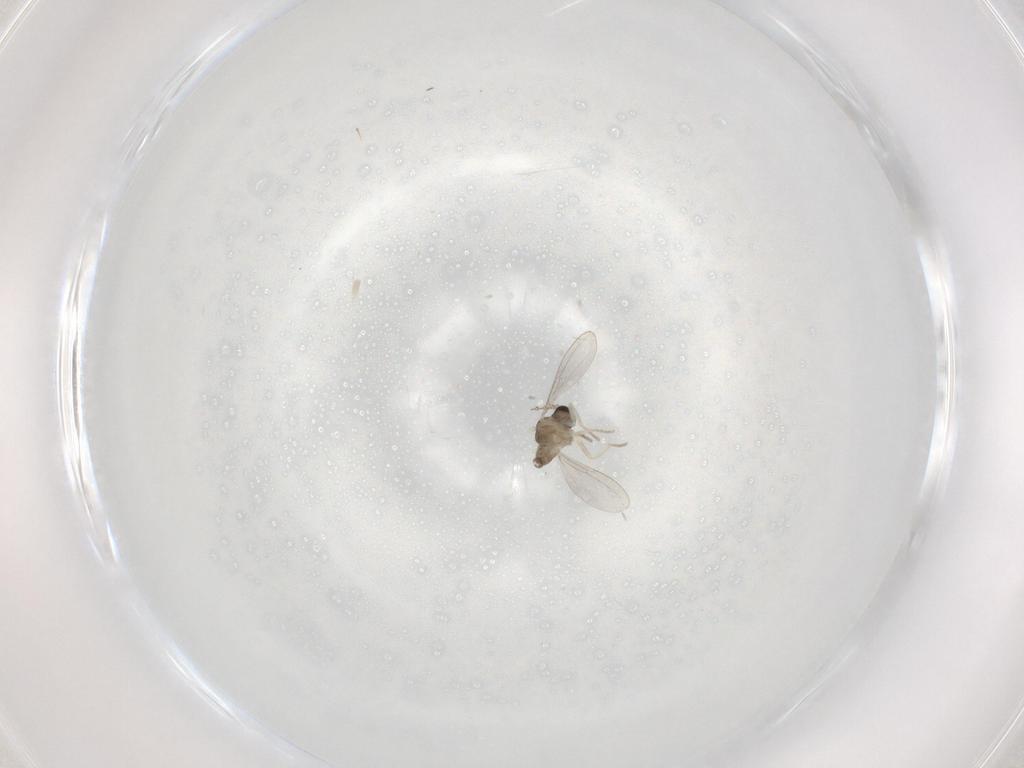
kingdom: Animalia
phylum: Arthropoda
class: Insecta
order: Diptera
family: Cecidomyiidae
